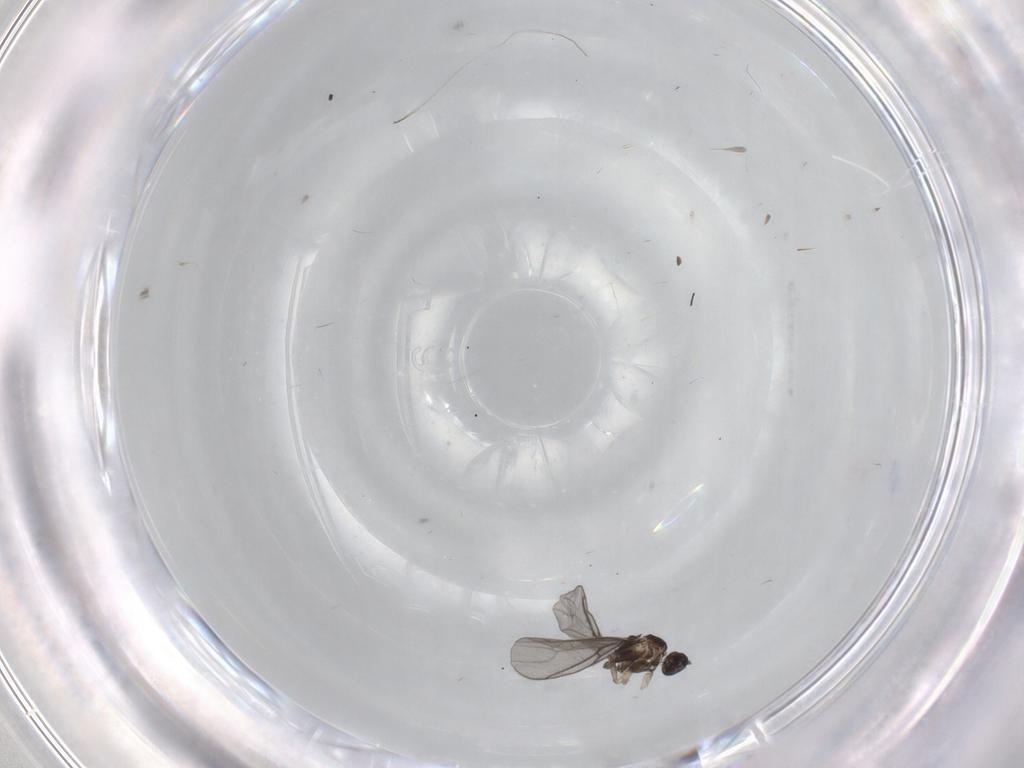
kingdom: Animalia
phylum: Arthropoda
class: Insecta
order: Diptera
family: Sciaridae
